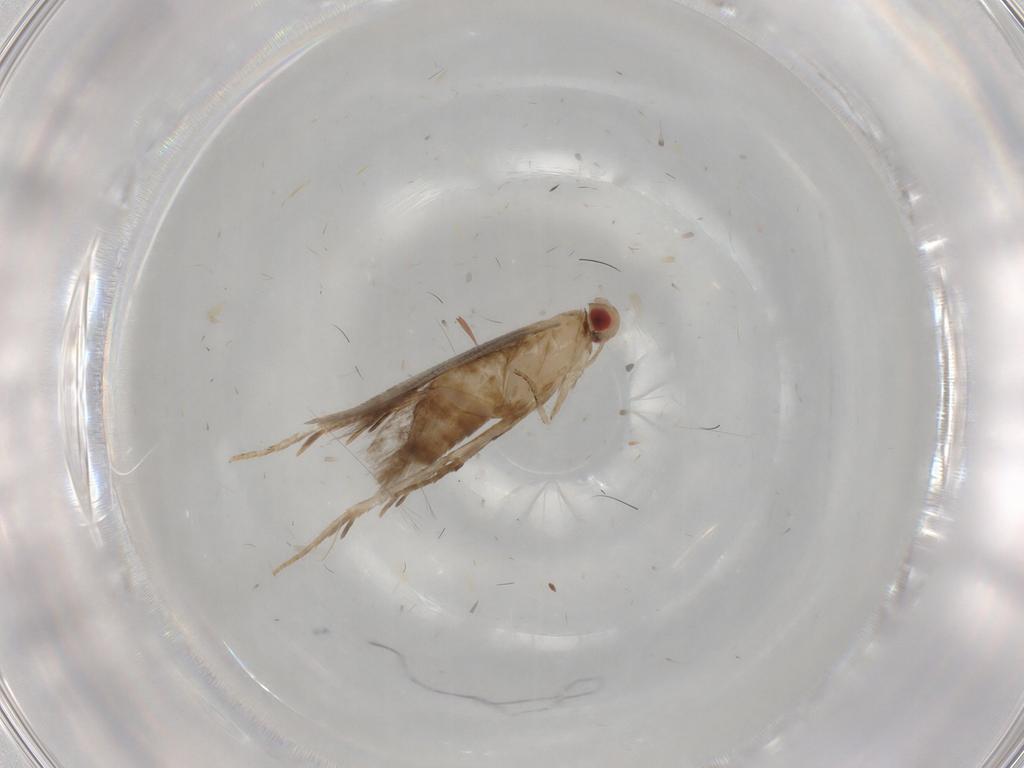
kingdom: Animalia
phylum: Arthropoda
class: Insecta
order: Lepidoptera
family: Gelechiidae
